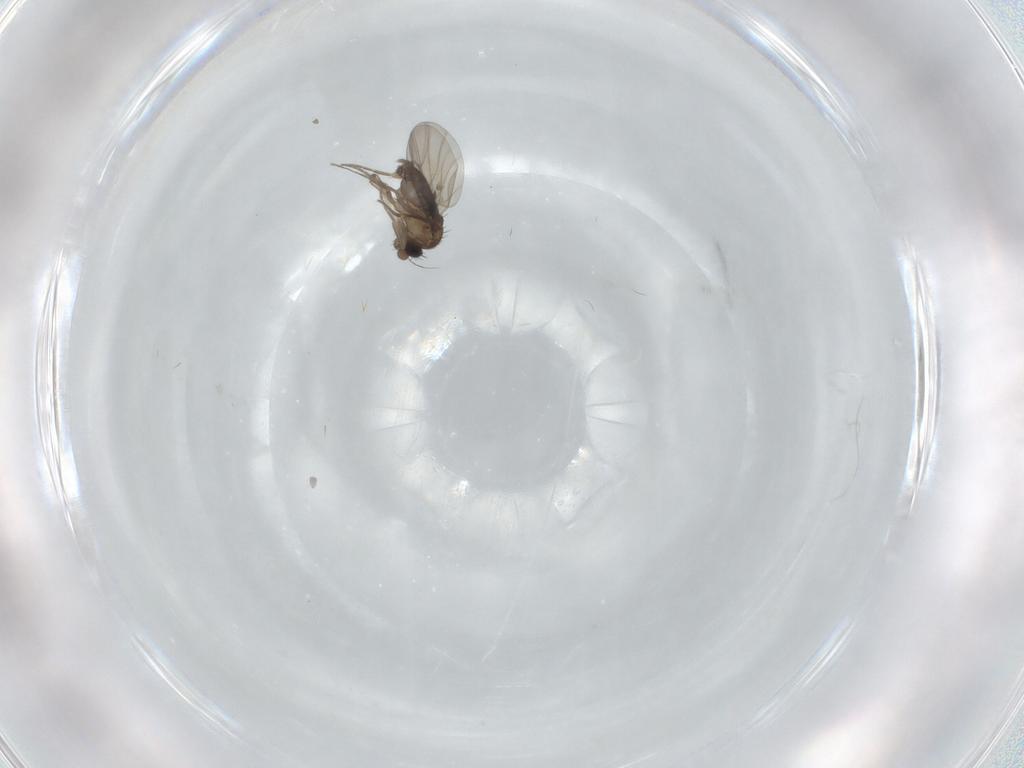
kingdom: Animalia
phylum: Arthropoda
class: Insecta
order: Diptera
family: Phoridae
